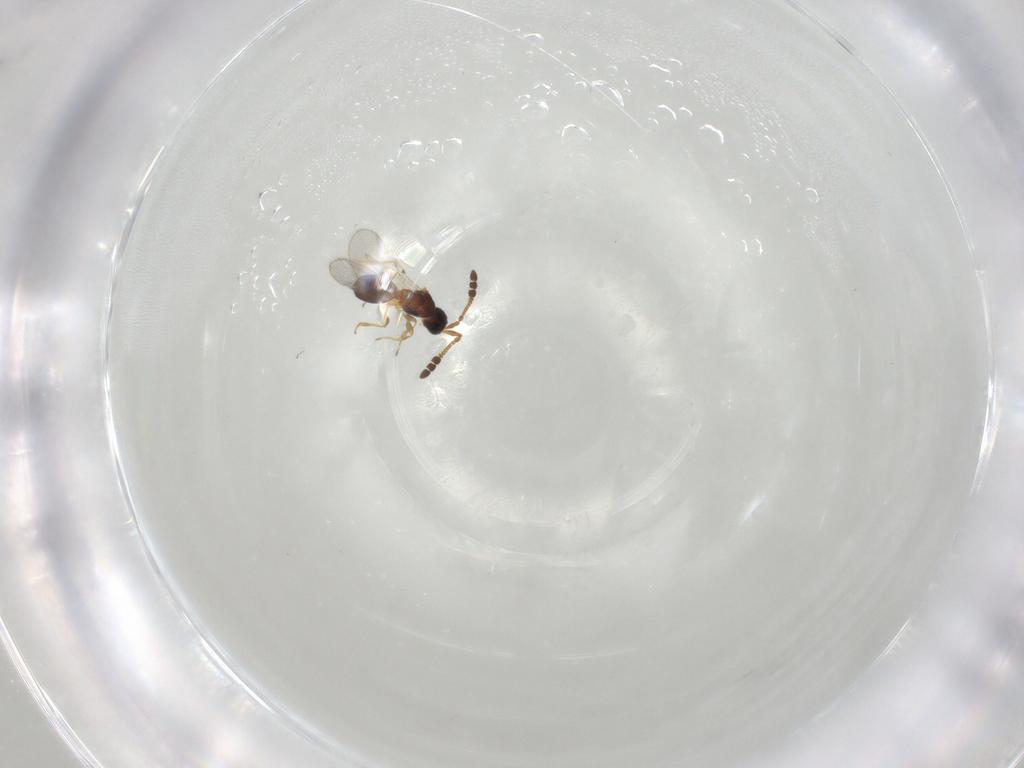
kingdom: Animalia
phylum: Arthropoda
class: Insecta
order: Hymenoptera
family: Diapriidae
